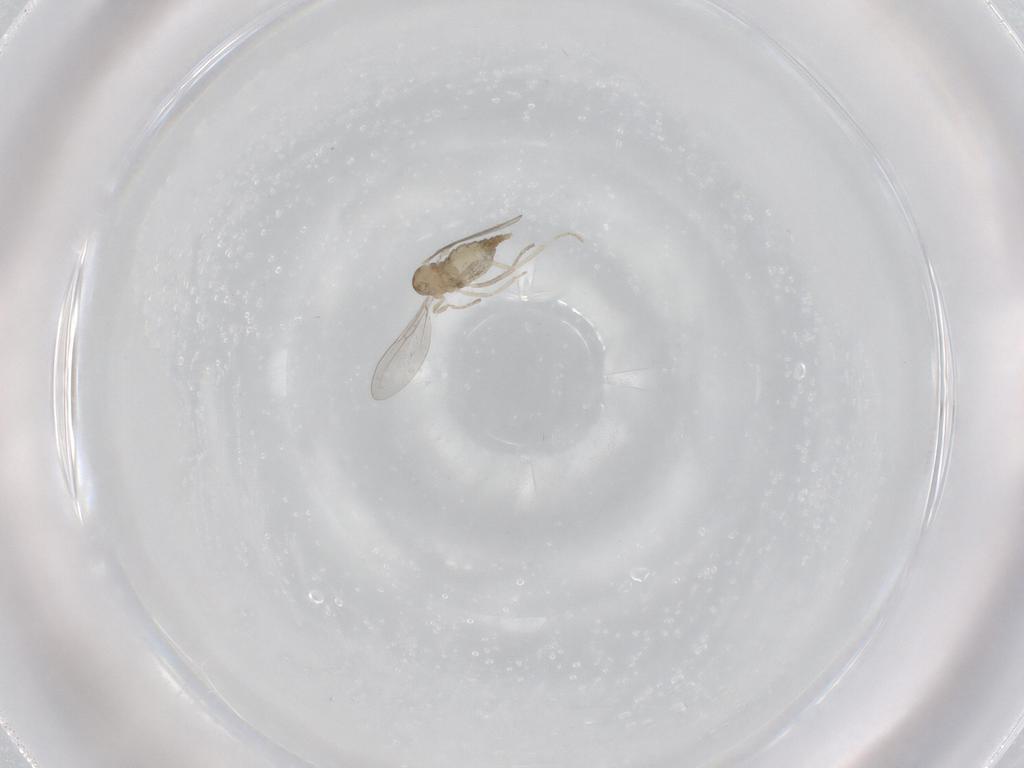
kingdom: Animalia
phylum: Arthropoda
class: Insecta
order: Diptera
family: Cecidomyiidae
